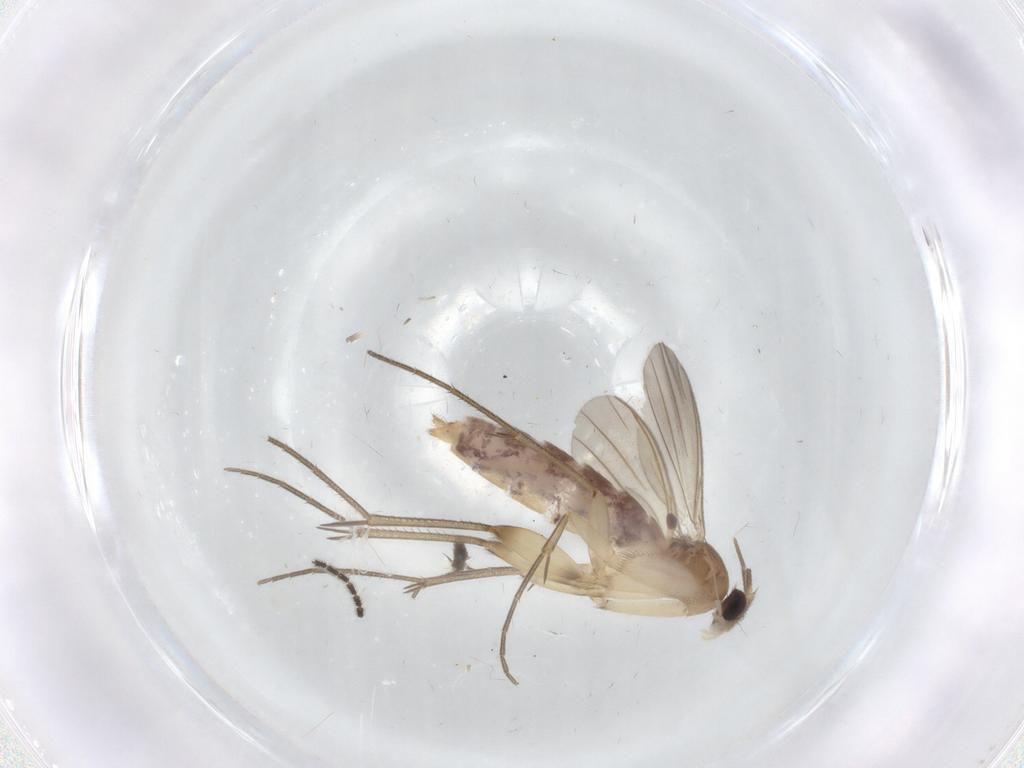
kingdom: Animalia
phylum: Arthropoda
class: Insecta
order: Diptera
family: Mycetophilidae
